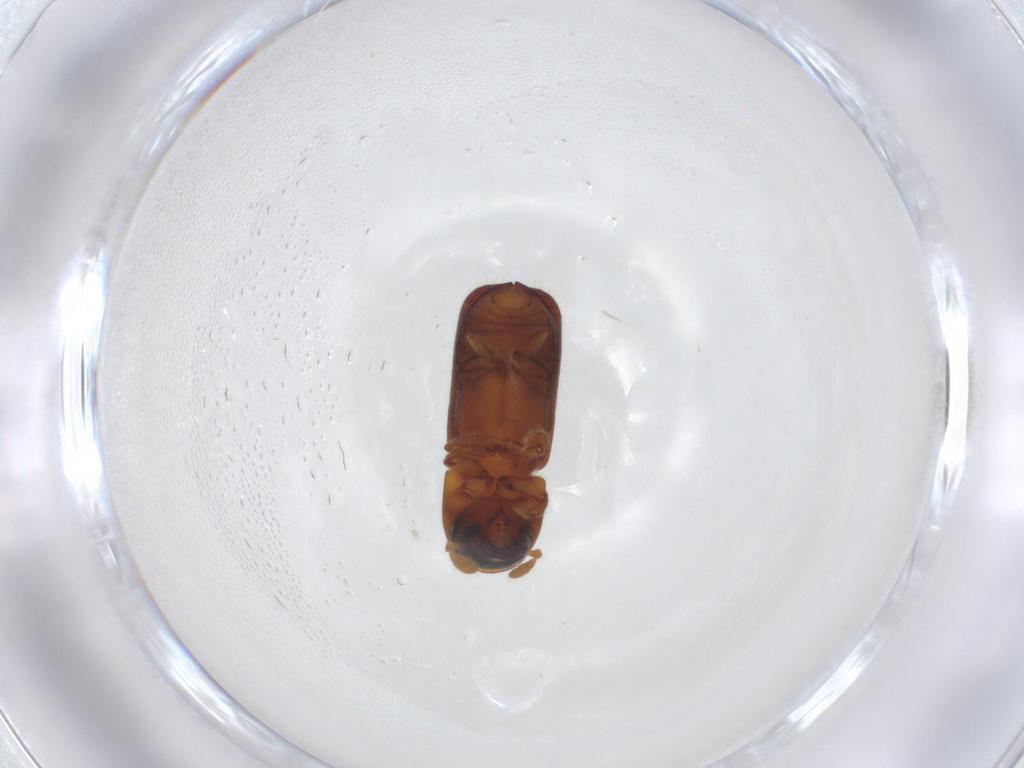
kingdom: Animalia
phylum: Arthropoda
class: Insecta
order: Coleoptera
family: Curculionidae
